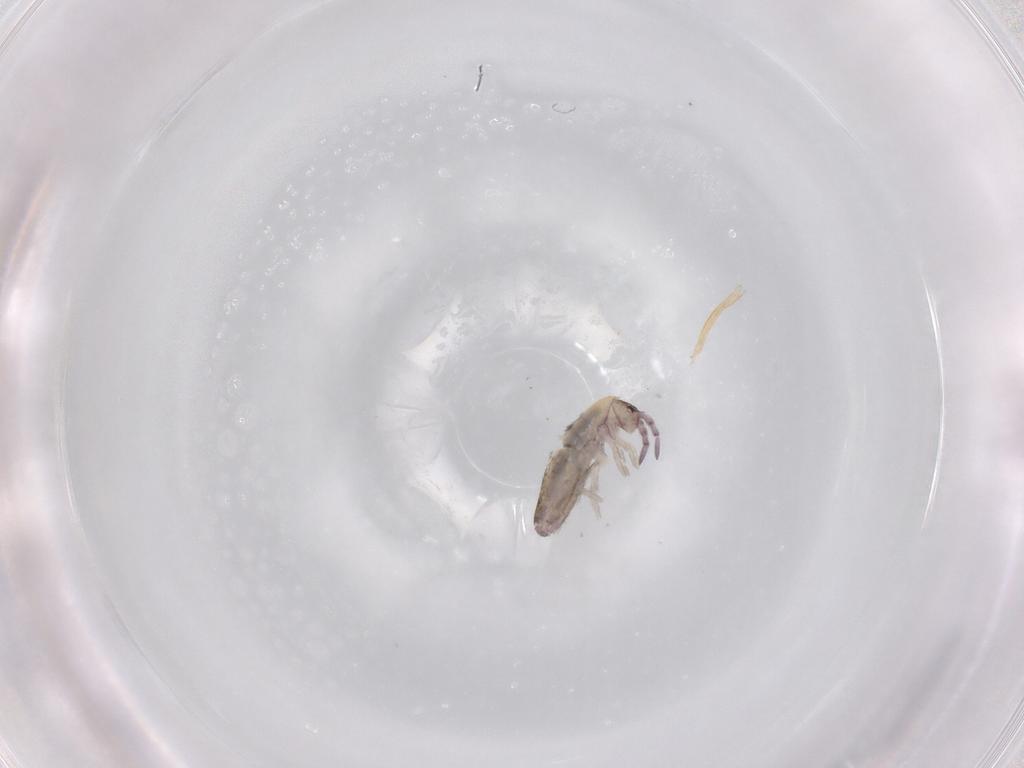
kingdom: Animalia
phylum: Arthropoda
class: Collembola
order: Entomobryomorpha
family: Entomobryidae
